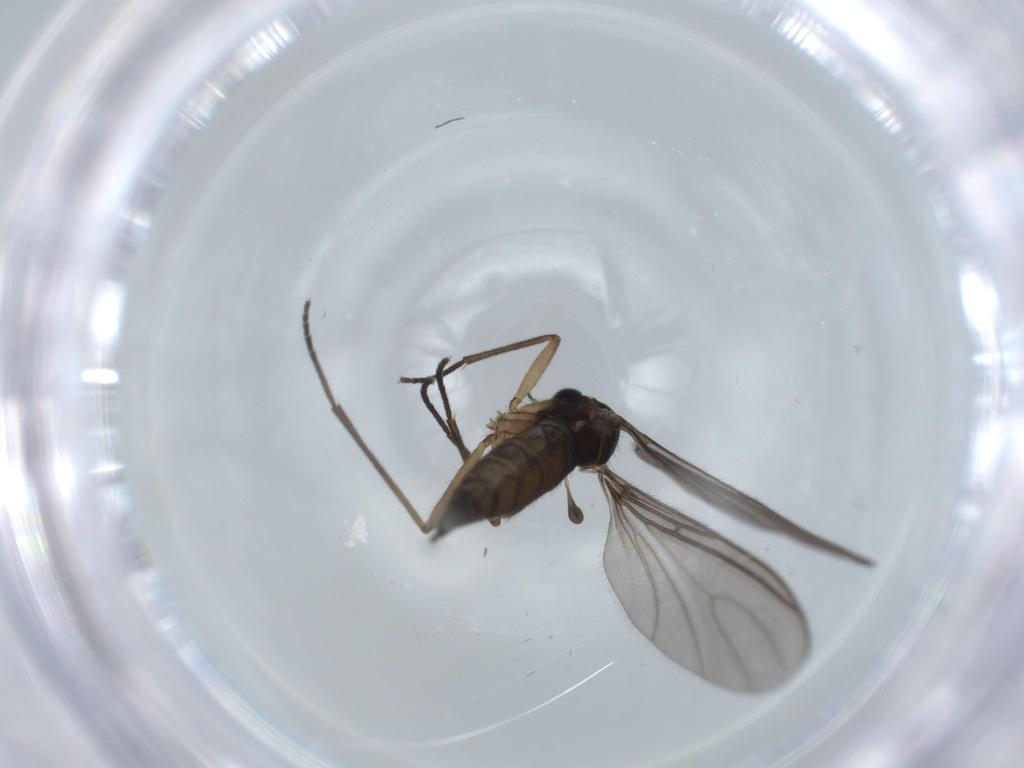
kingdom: Animalia
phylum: Arthropoda
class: Insecta
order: Diptera
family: Sciaridae
